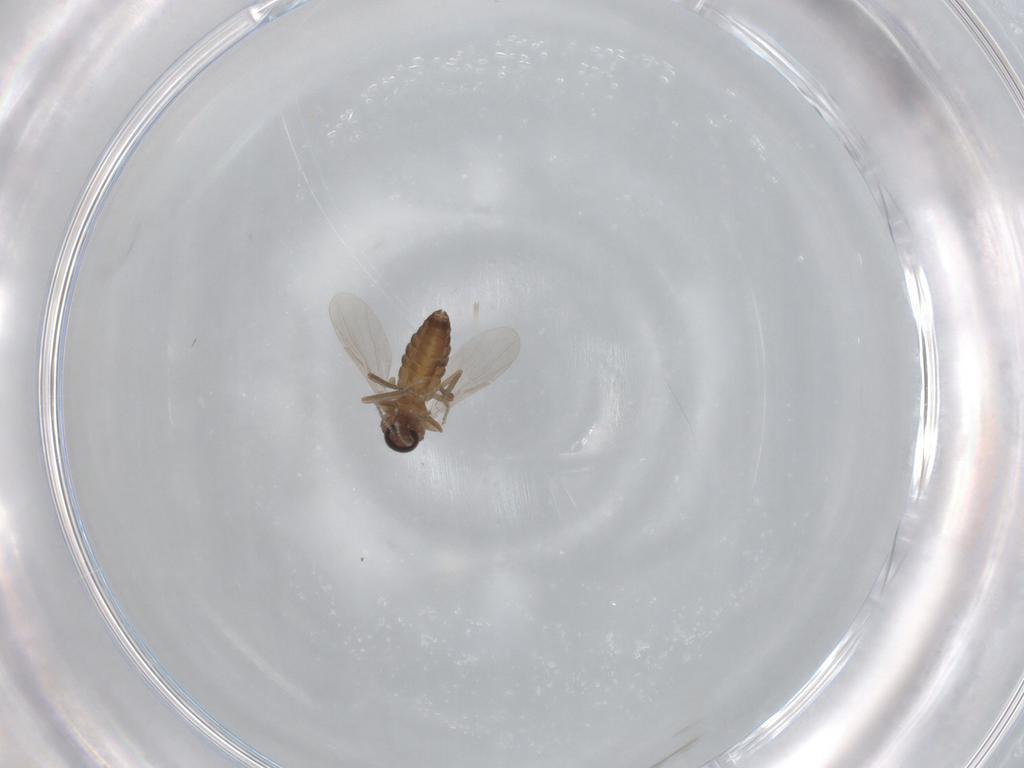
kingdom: Animalia
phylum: Arthropoda
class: Insecta
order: Diptera
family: Ceratopogonidae
